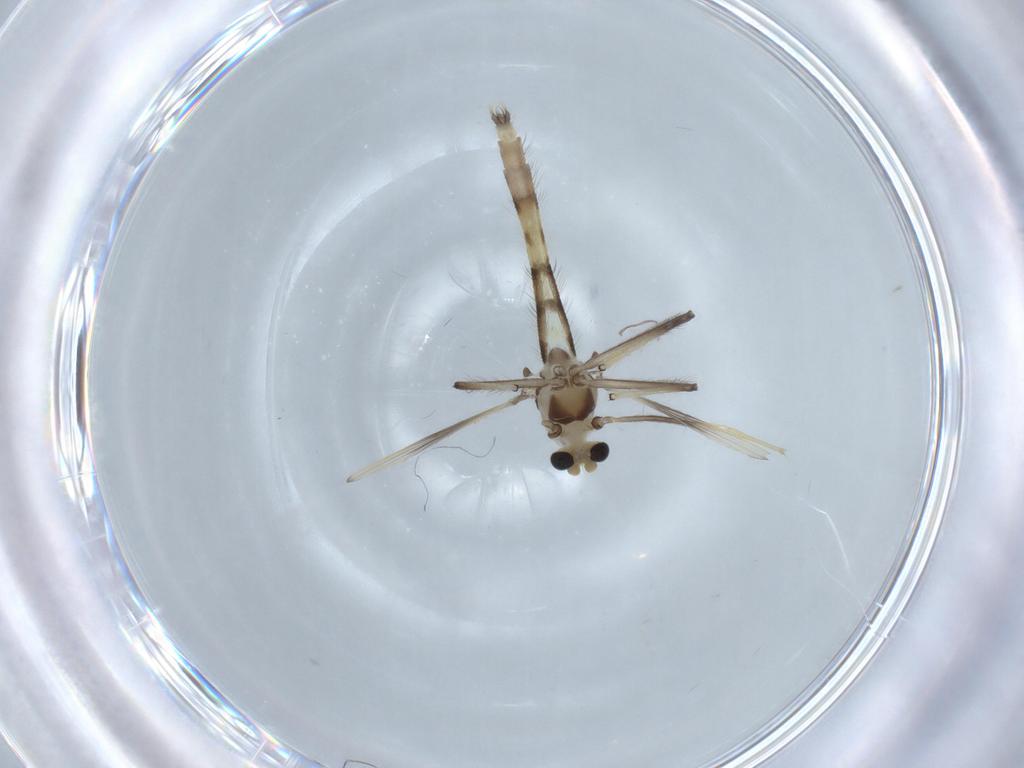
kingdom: Animalia
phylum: Arthropoda
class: Insecta
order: Diptera
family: Chironomidae
